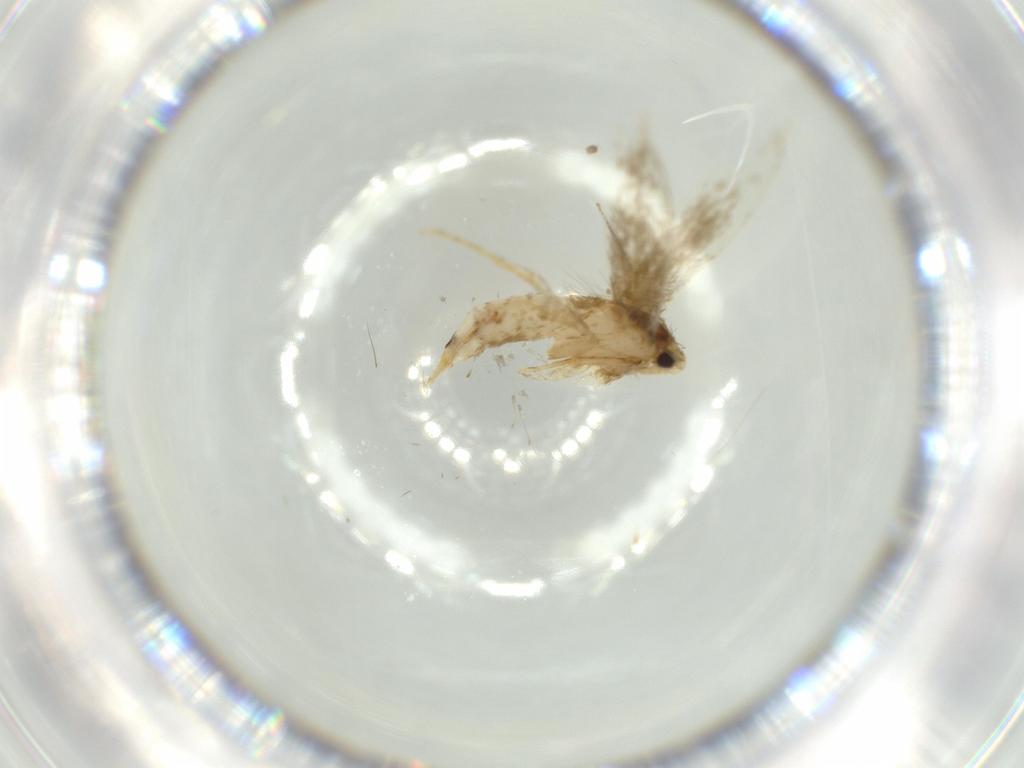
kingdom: Animalia
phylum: Arthropoda
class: Insecta
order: Lepidoptera
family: Tineidae
